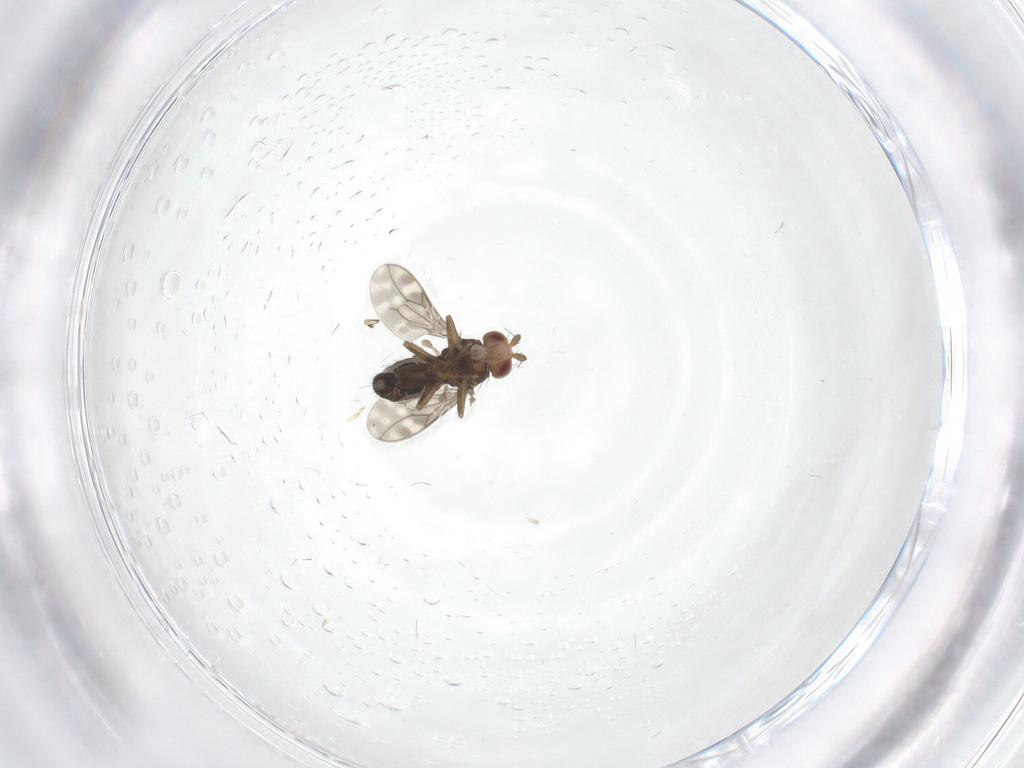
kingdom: Animalia
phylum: Arthropoda
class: Insecta
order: Diptera
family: Sphaeroceridae
